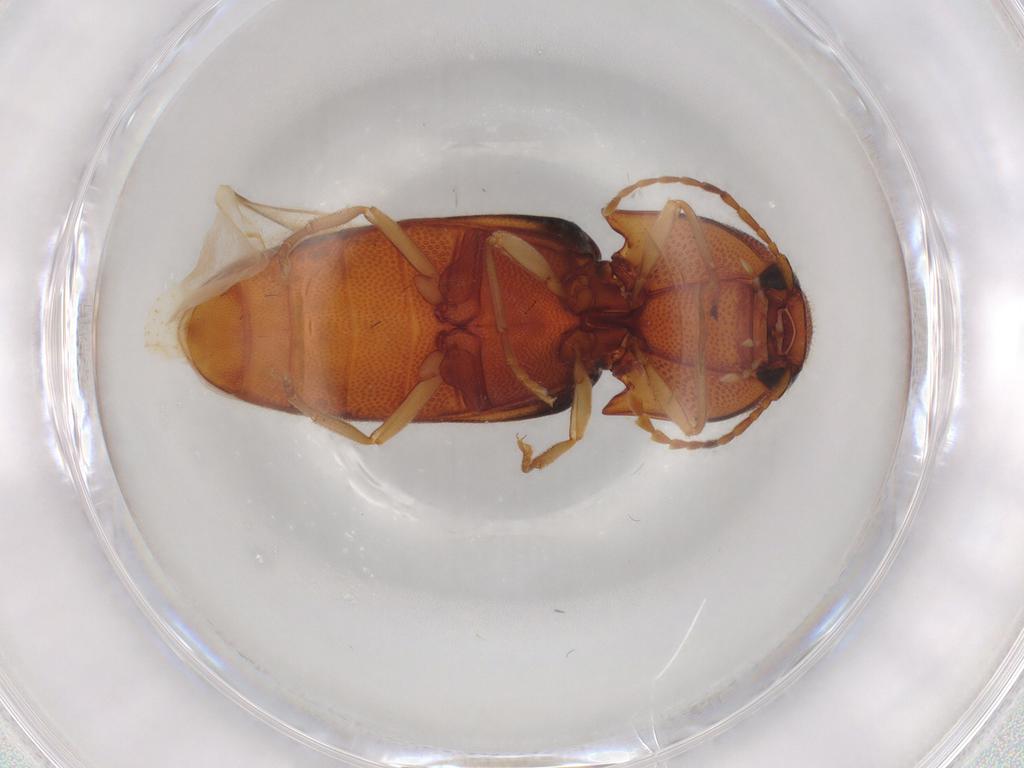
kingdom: Animalia
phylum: Arthropoda
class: Insecta
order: Coleoptera
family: Elateridae
